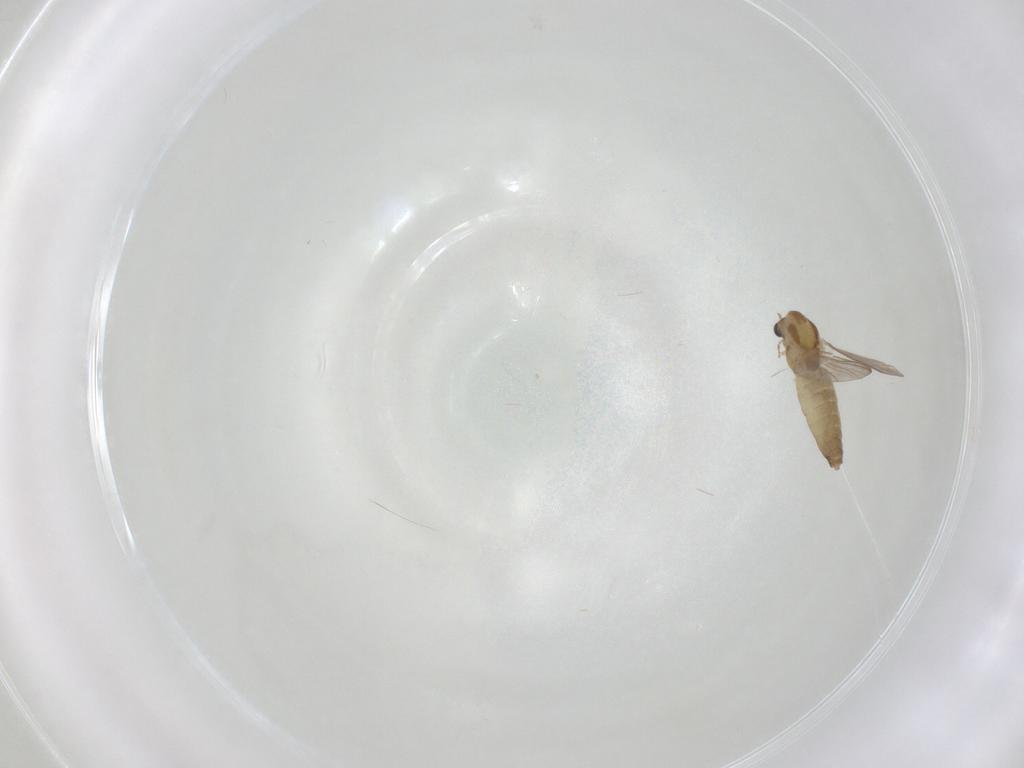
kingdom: Animalia
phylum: Arthropoda
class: Insecta
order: Diptera
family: Chironomidae
